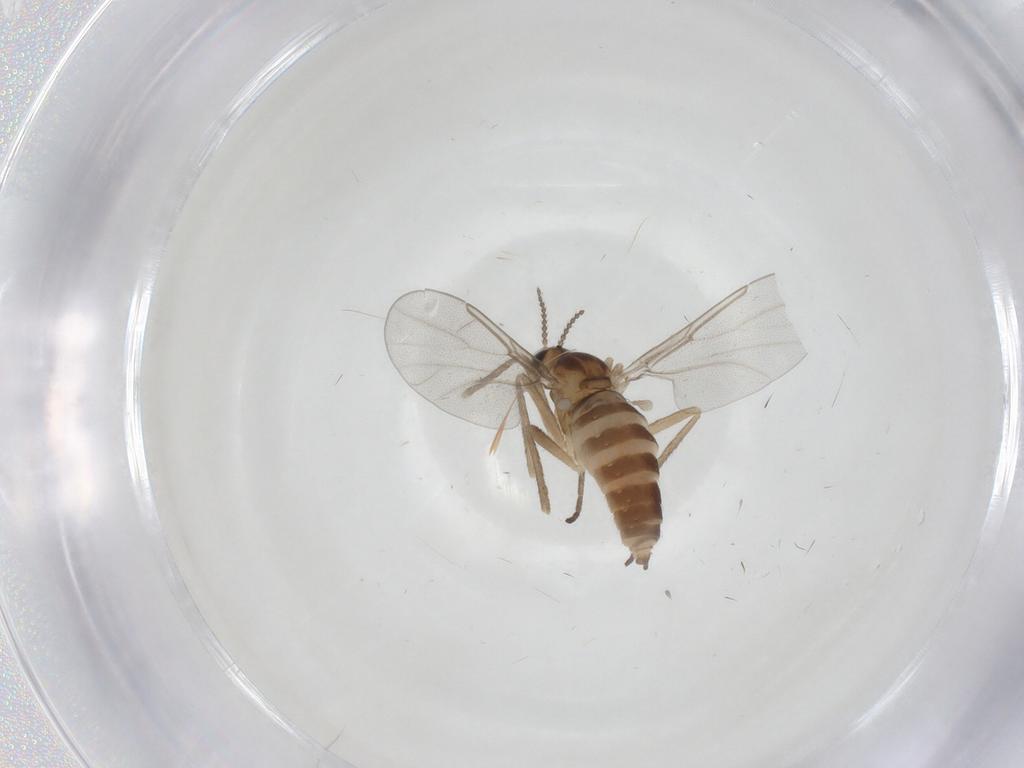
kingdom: Animalia
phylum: Arthropoda
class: Insecta
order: Diptera
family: Cecidomyiidae
